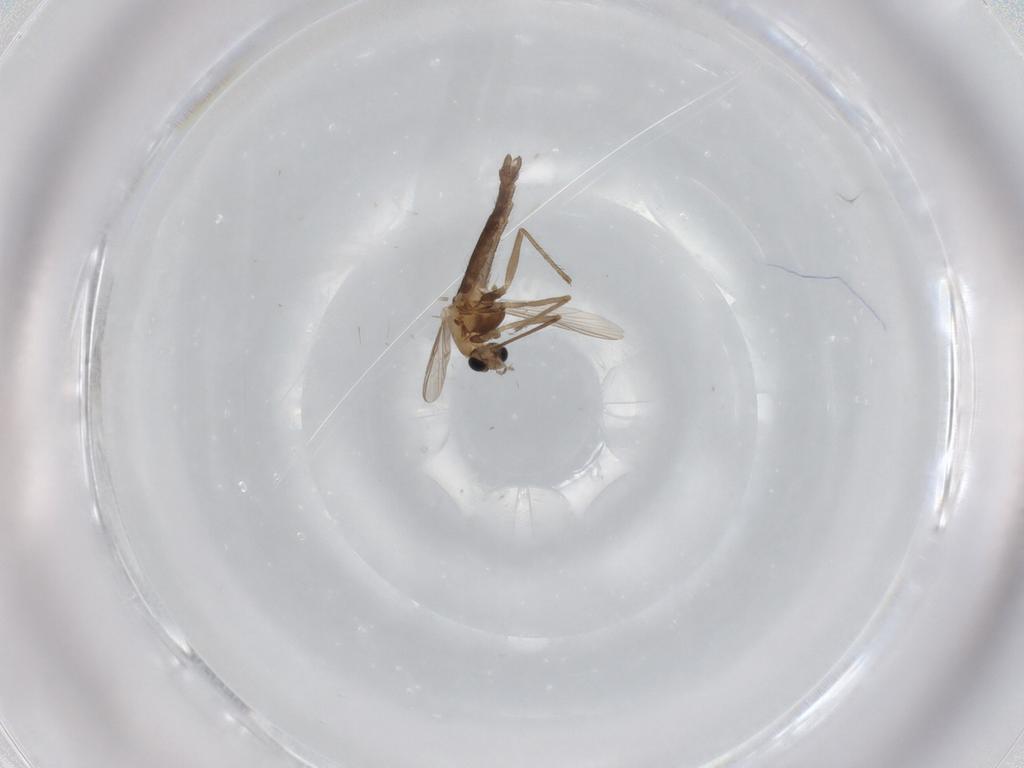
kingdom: Animalia
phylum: Arthropoda
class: Insecta
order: Diptera
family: Chironomidae
